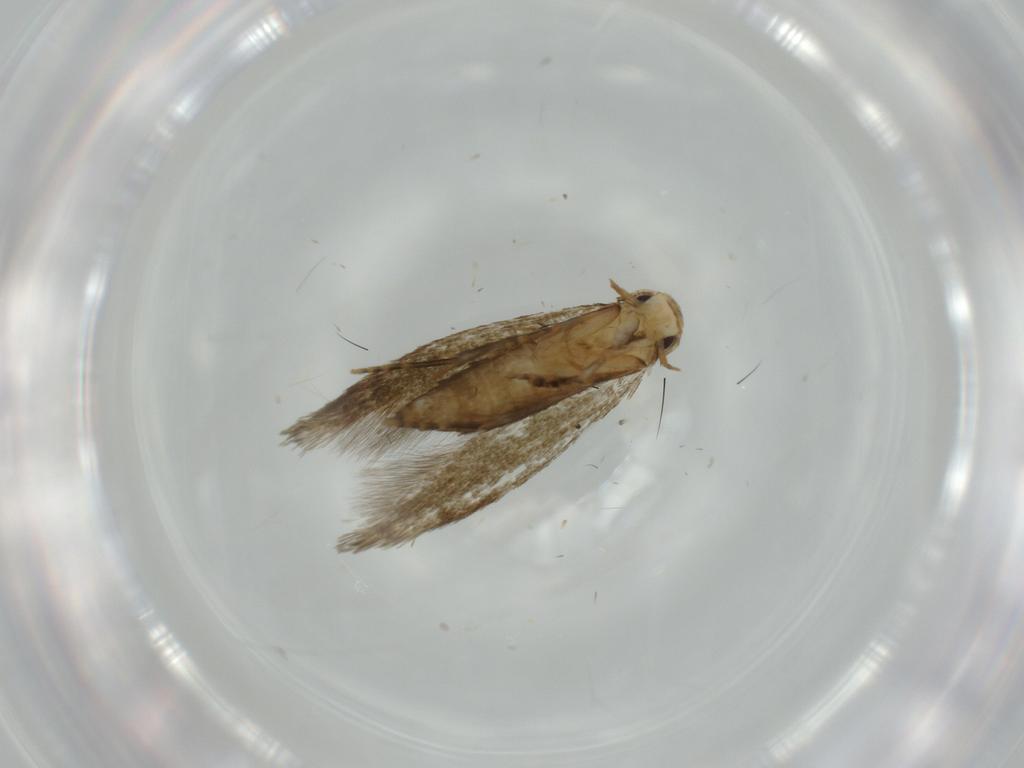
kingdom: Animalia
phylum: Arthropoda
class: Insecta
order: Lepidoptera
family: Tineidae
